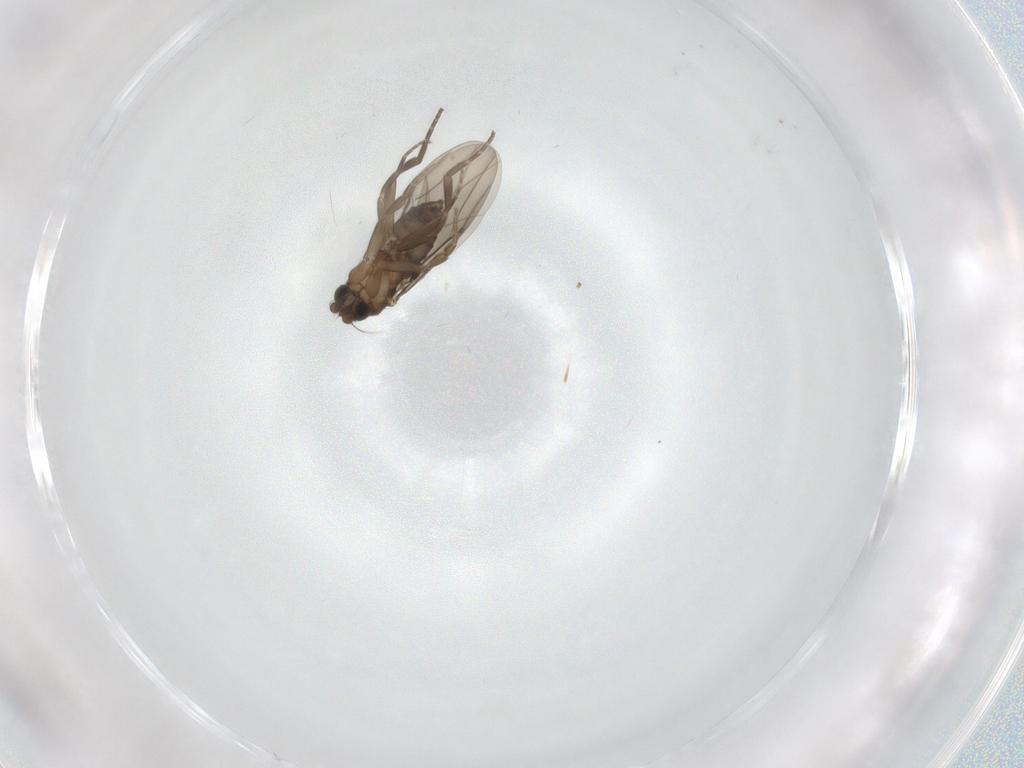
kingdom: Animalia
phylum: Arthropoda
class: Insecta
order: Diptera
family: Phoridae
